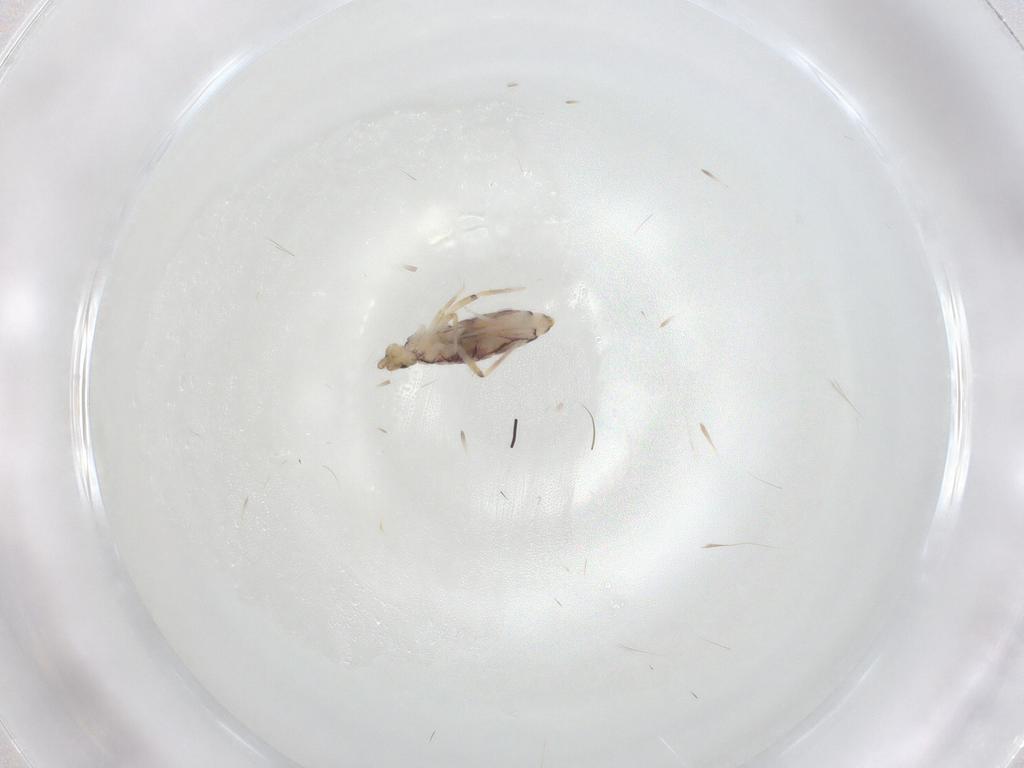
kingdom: Animalia
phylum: Arthropoda
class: Collembola
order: Entomobryomorpha
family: Entomobryidae
